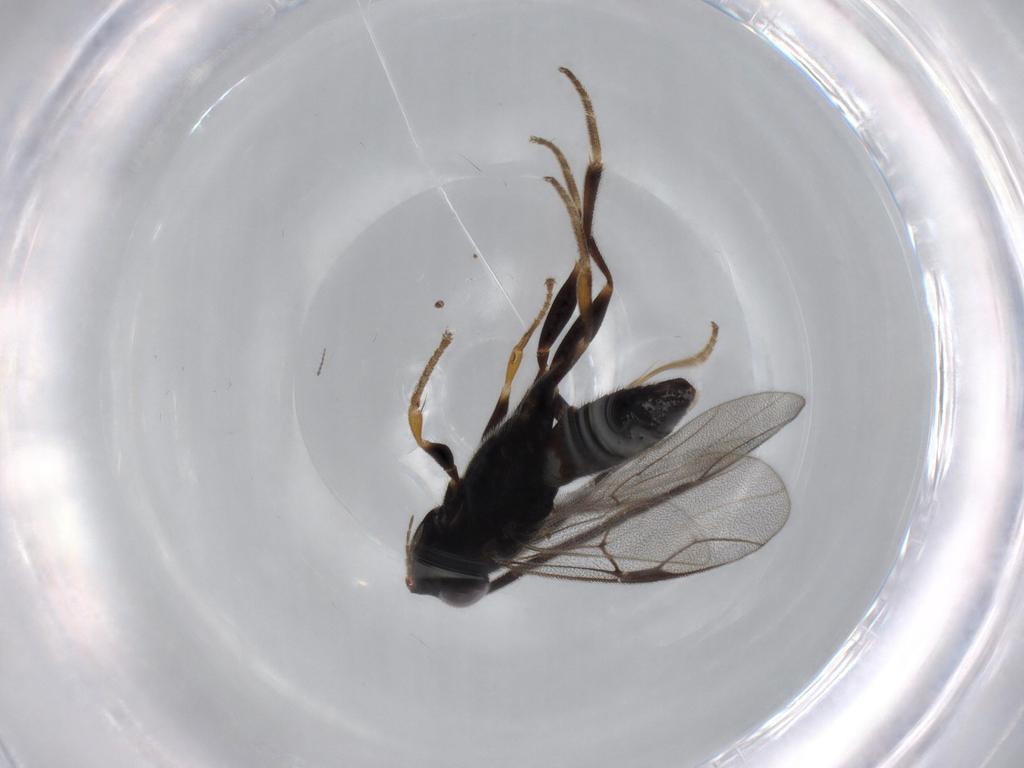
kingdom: Animalia
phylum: Arthropoda
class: Insecta
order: Hymenoptera
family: Dryinidae
